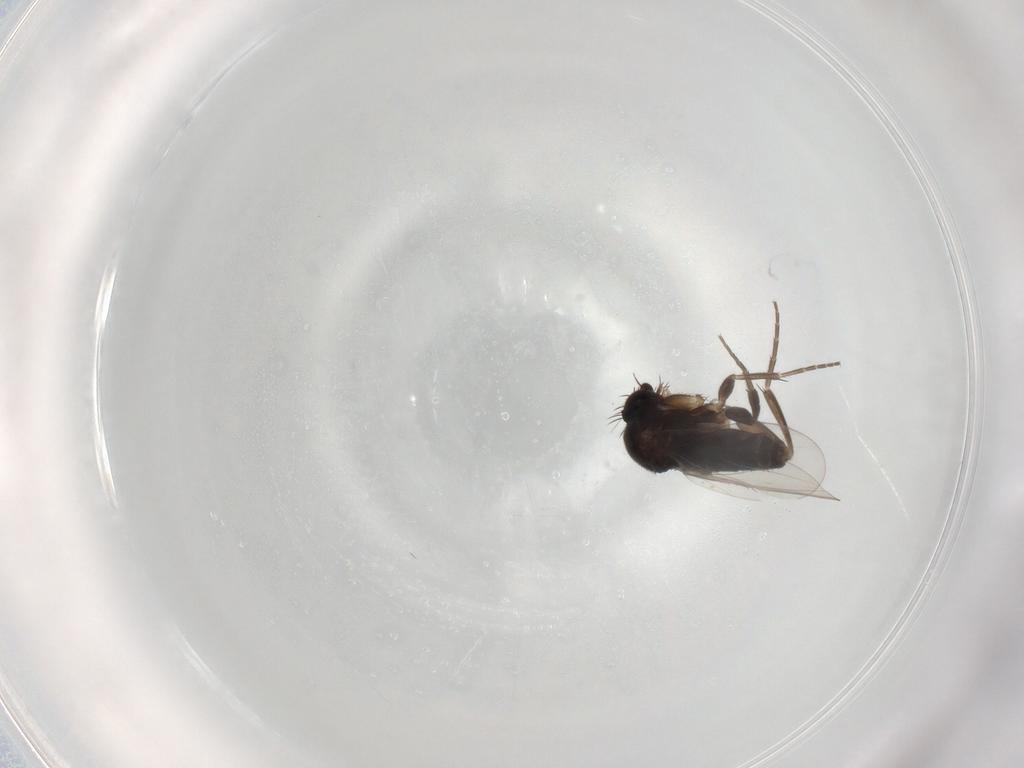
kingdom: Animalia
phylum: Arthropoda
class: Insecta
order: Diptera
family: Phoridae
